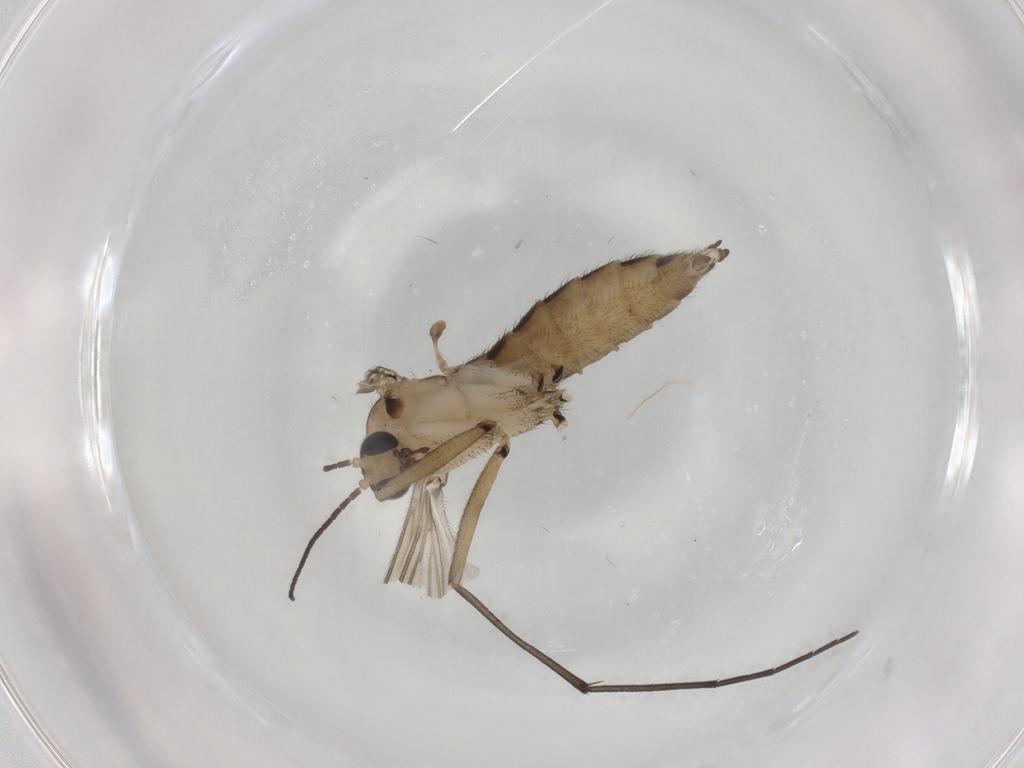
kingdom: Animalia
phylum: Arthropoda
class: Insecta
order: Diptera
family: Sciaridae
